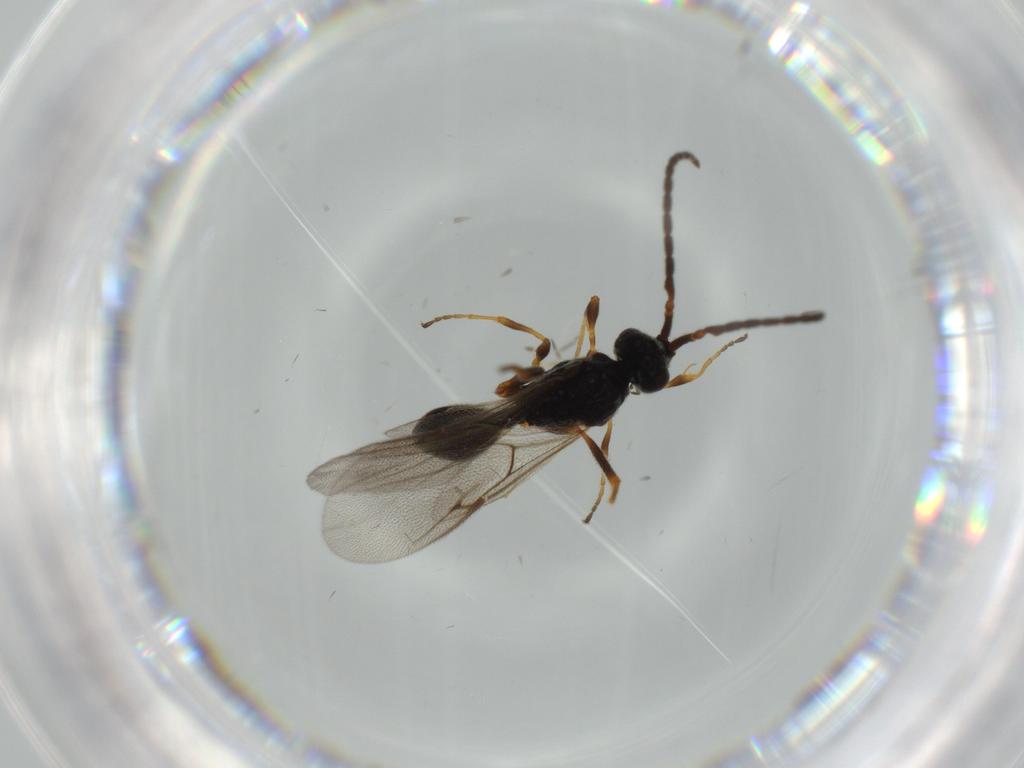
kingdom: Animalia
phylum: Arthropoda
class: Insecta
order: Hymenoptera
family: Ichneumonidae
